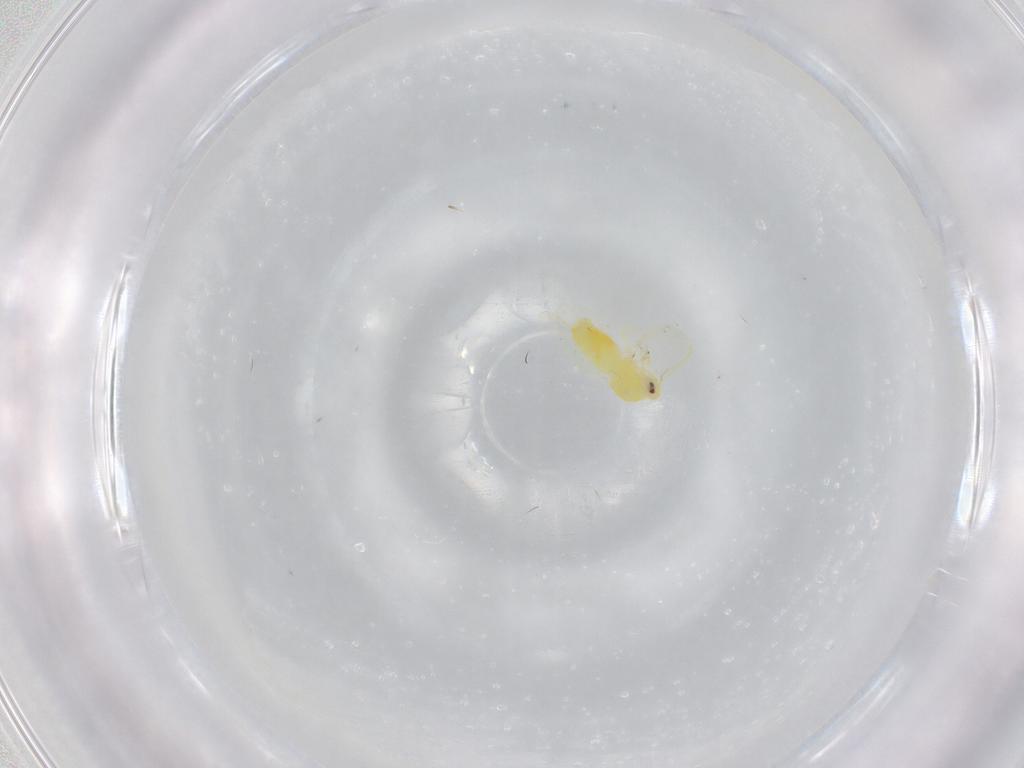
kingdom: Animalia
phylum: Arthropoda
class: Insecta
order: Hemiptera
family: Aleyrodidae
